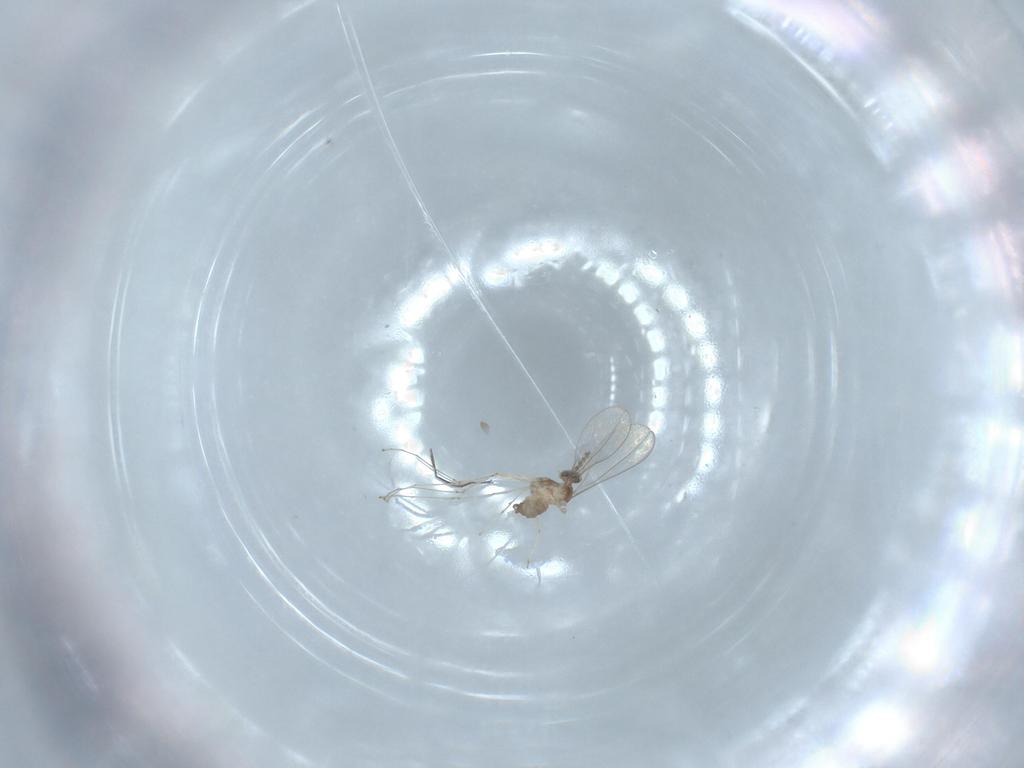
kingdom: Animalia
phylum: Arthropoda
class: Insecta
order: Diptera
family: Cecidomyiidae
